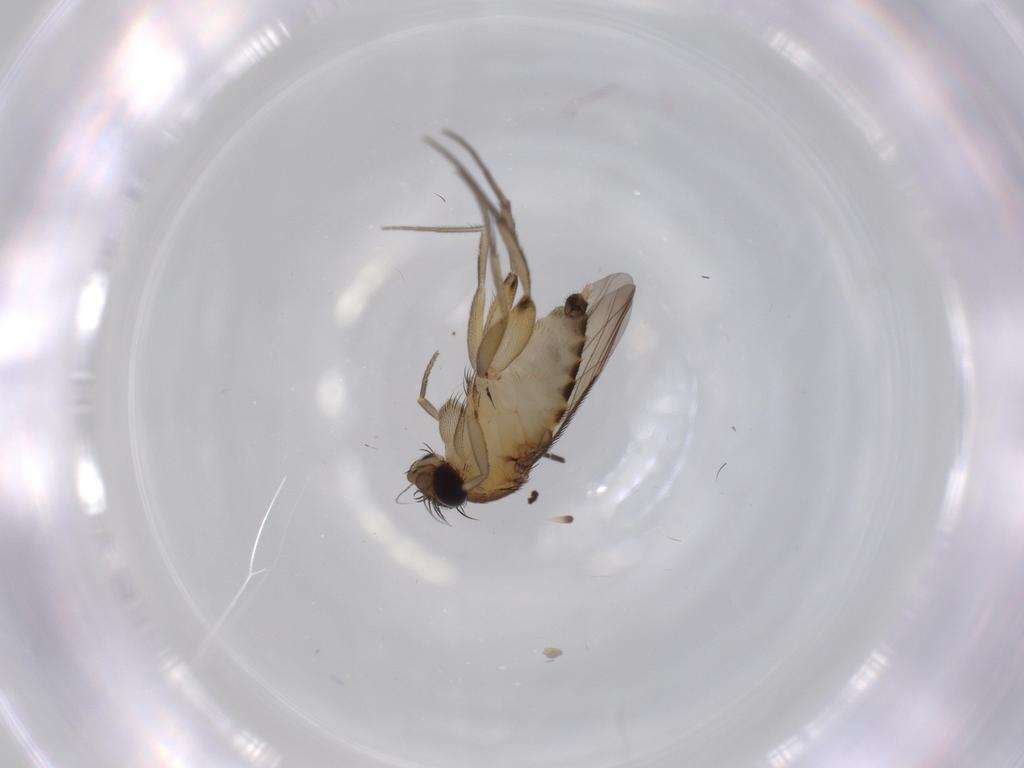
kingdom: Animalia
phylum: Arthropoda
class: Insecta
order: Diptera
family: Phoridae
